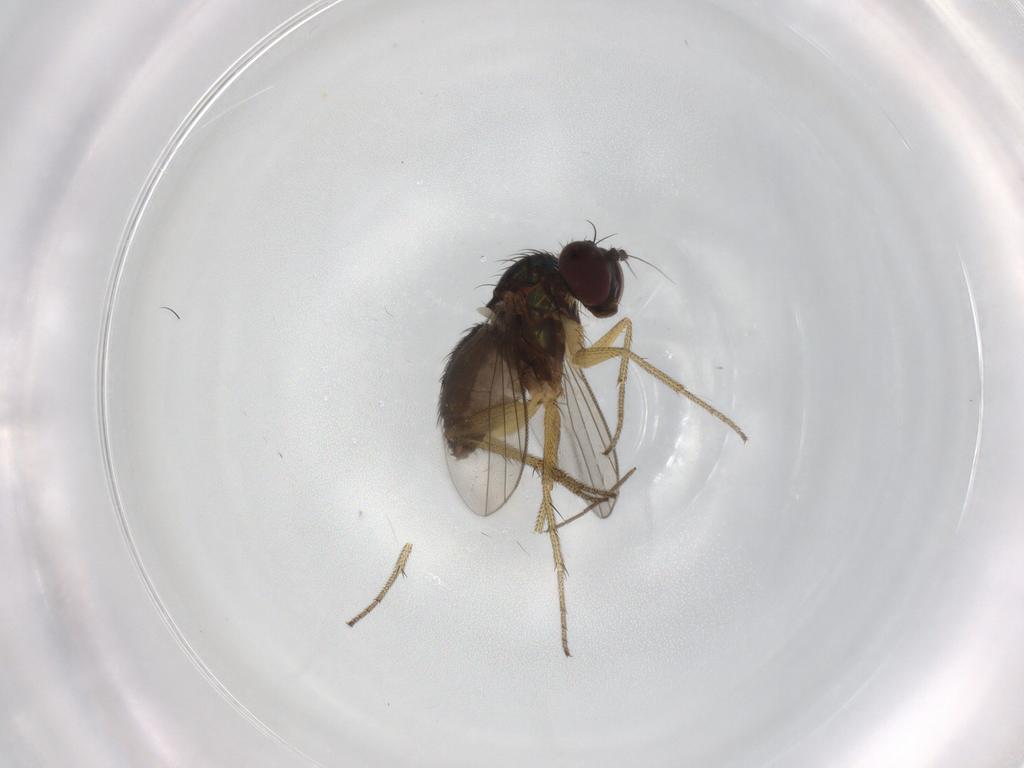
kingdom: Animalia
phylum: Arthropoda
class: Insecta
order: Diptera
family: Dolichopodidae
